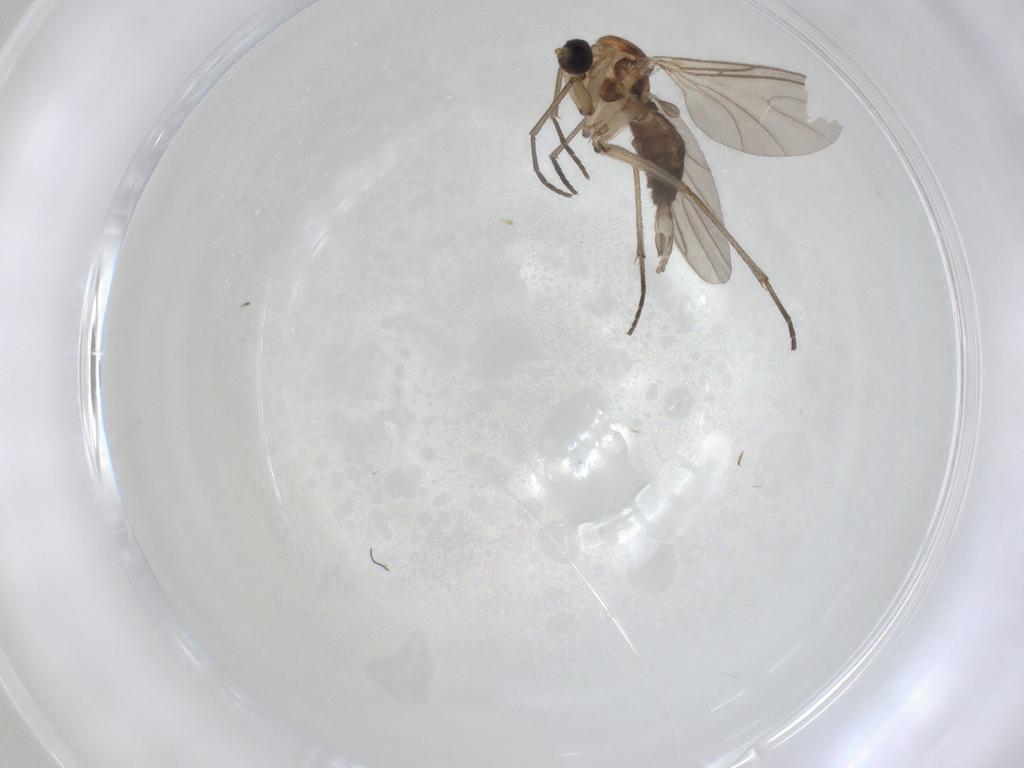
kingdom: Animalia
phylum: Arthropoda
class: Insecta
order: Diptera
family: Sciaridae
